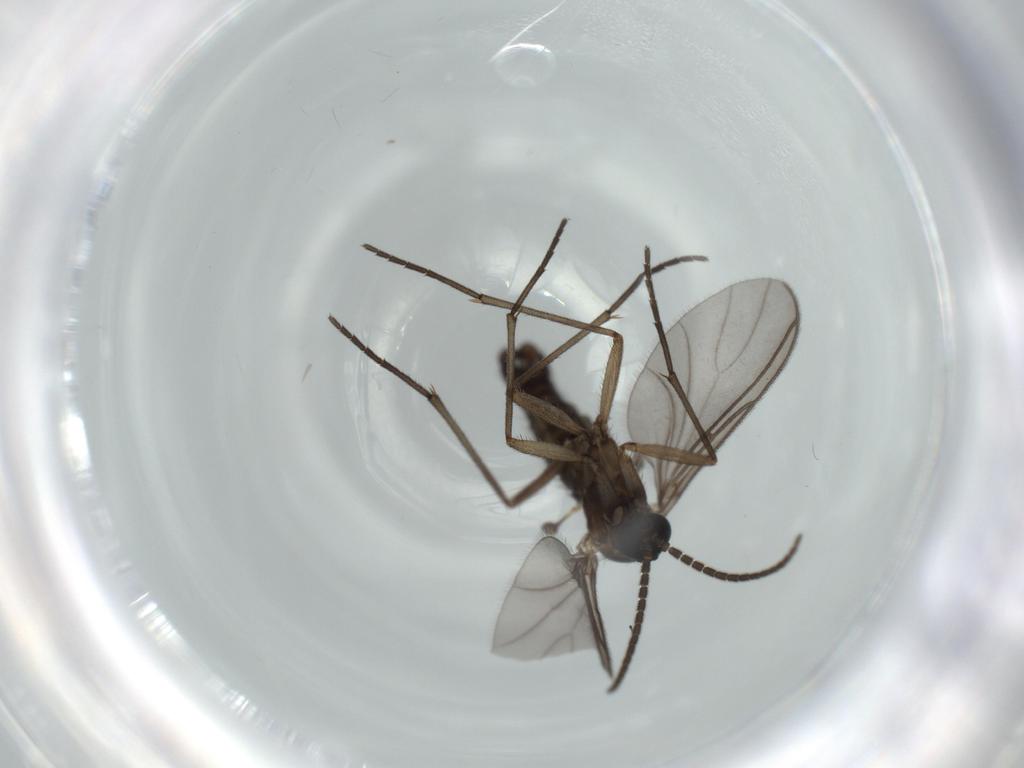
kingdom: Animalia
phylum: Arthropoda
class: Insecta
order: Diptera
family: Sciaridae
